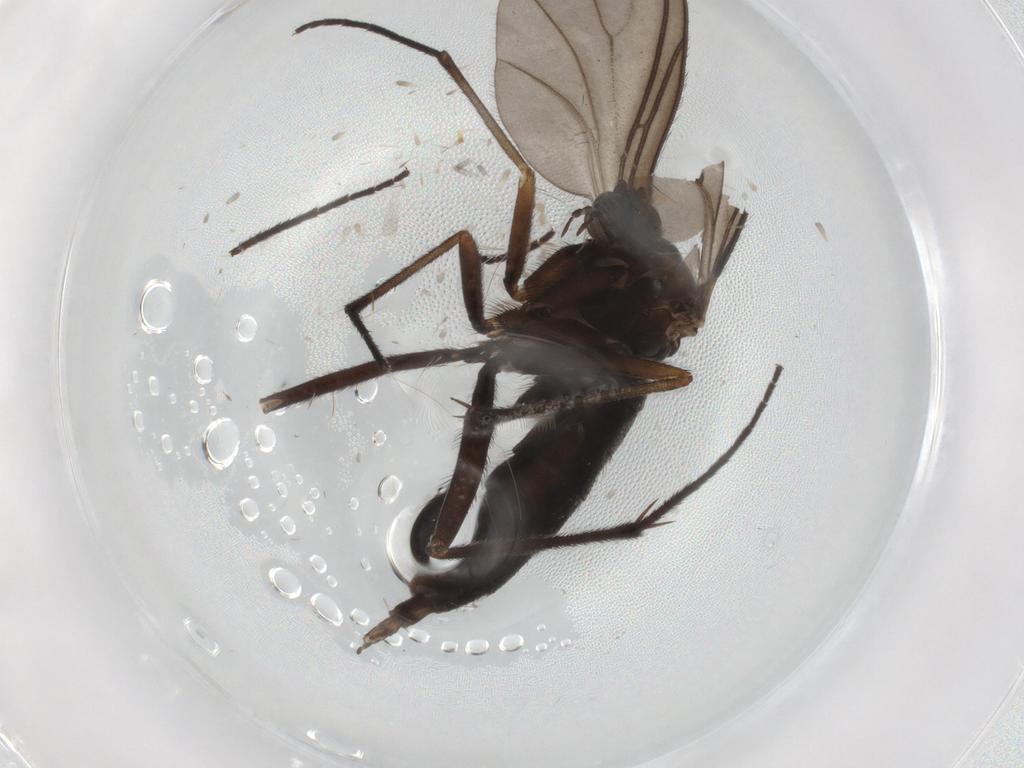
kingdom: Animalia
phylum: Arthropoda
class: Insecta
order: Diptera
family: Sciaridae
